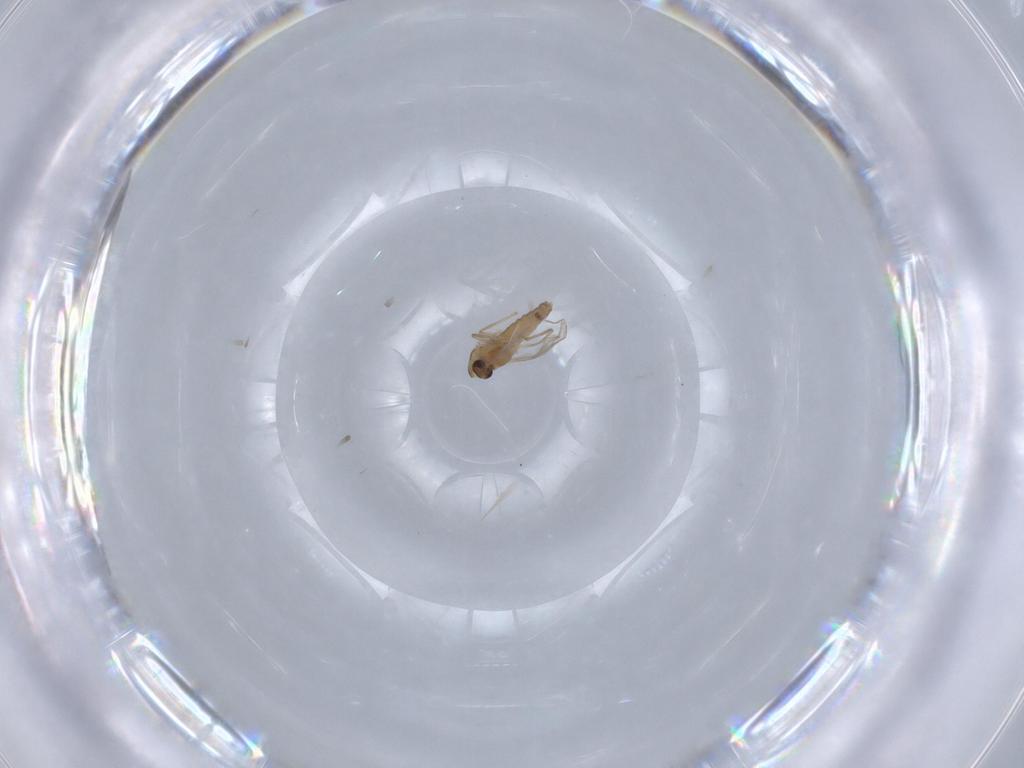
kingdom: Animalia
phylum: Arthropoda
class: Insecta
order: Diptera
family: Chironomidae
